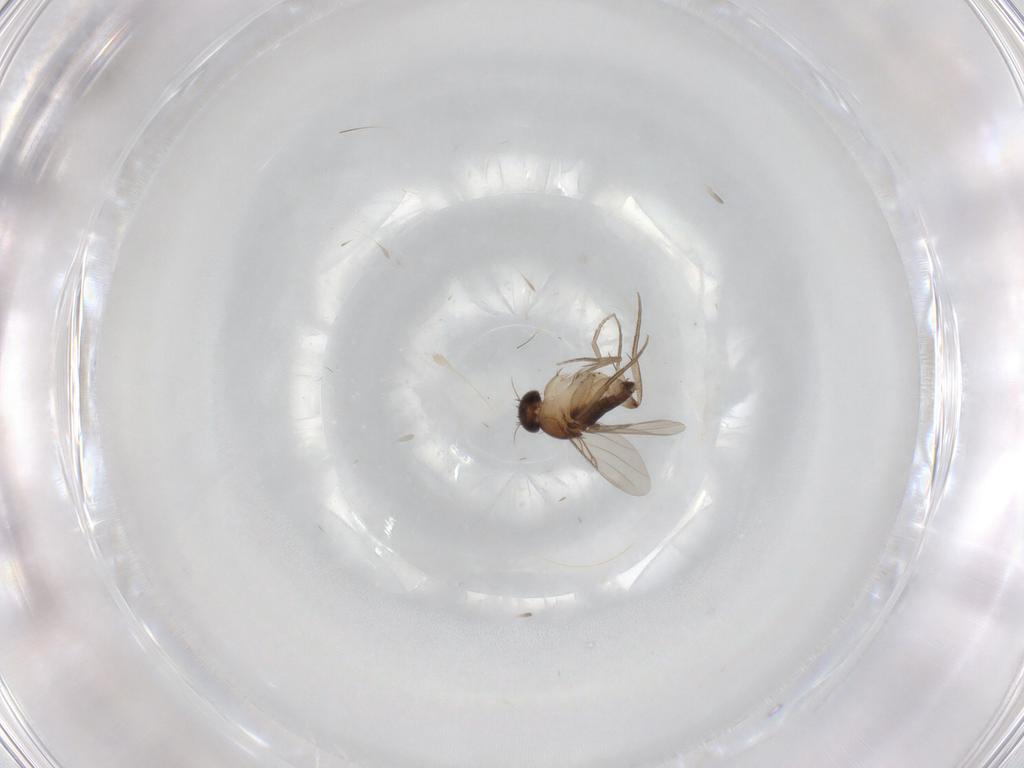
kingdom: Animalia
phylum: Arthropoda
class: Insecta
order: Diptera
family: Phoridae
